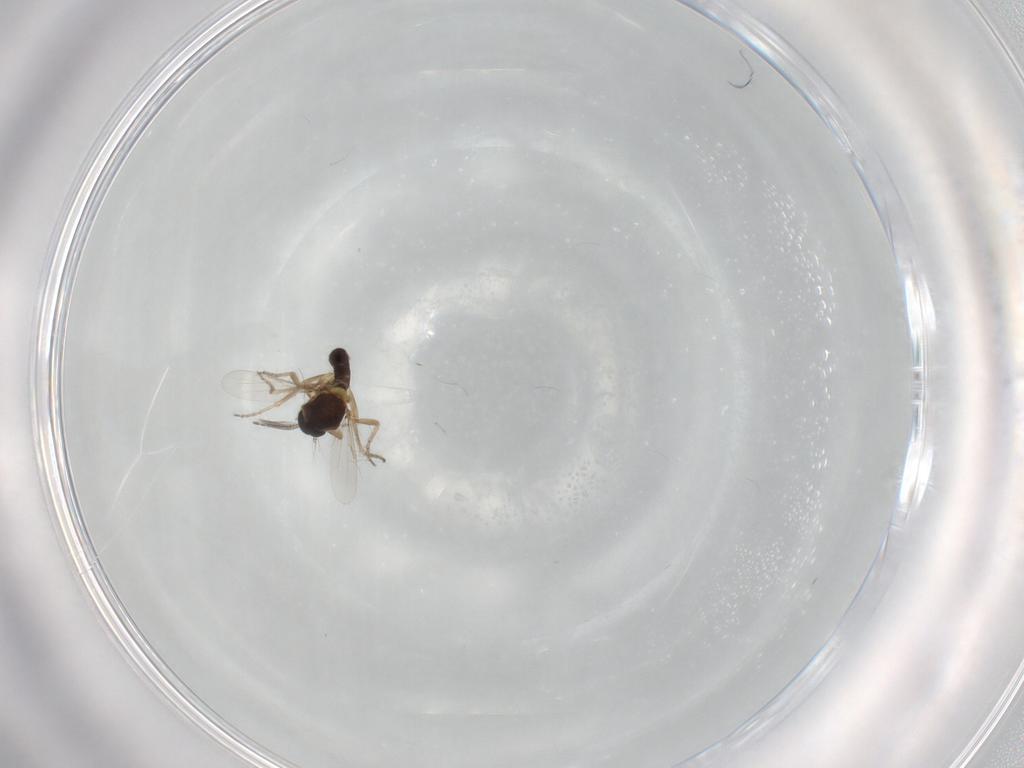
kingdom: Animalia
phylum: Arthropoda
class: Insecta
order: Diptera
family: Ceratopogonidae
